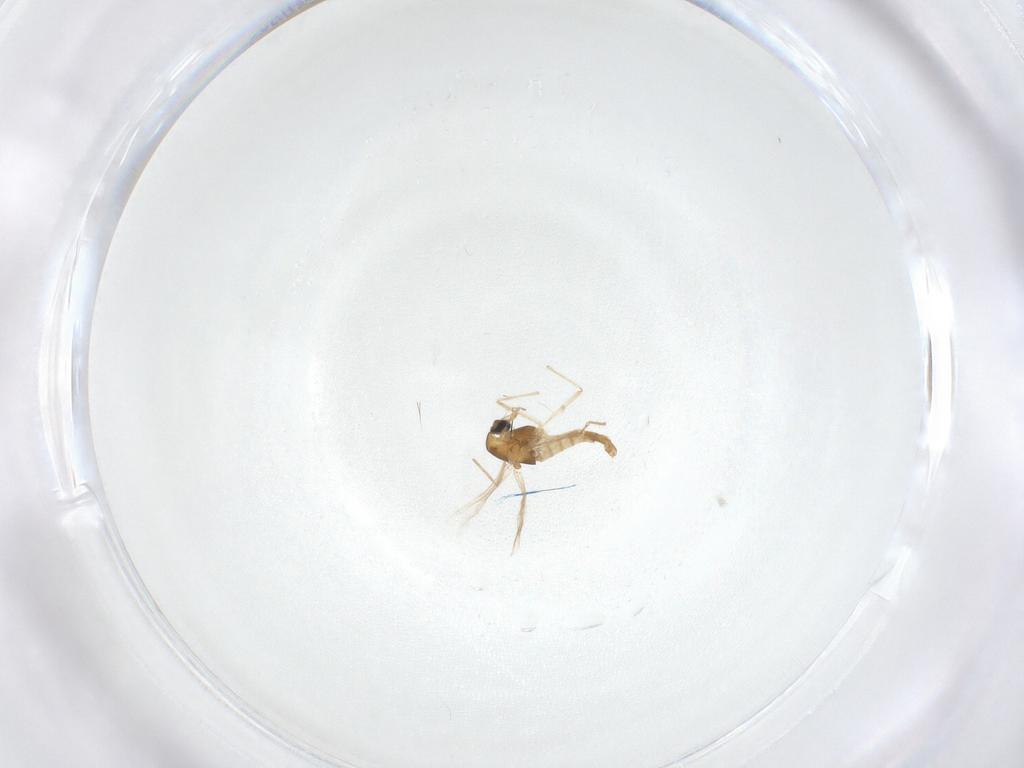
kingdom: Animalia
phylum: Arthropoda
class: Insecta
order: Diptera
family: Chironomidae
